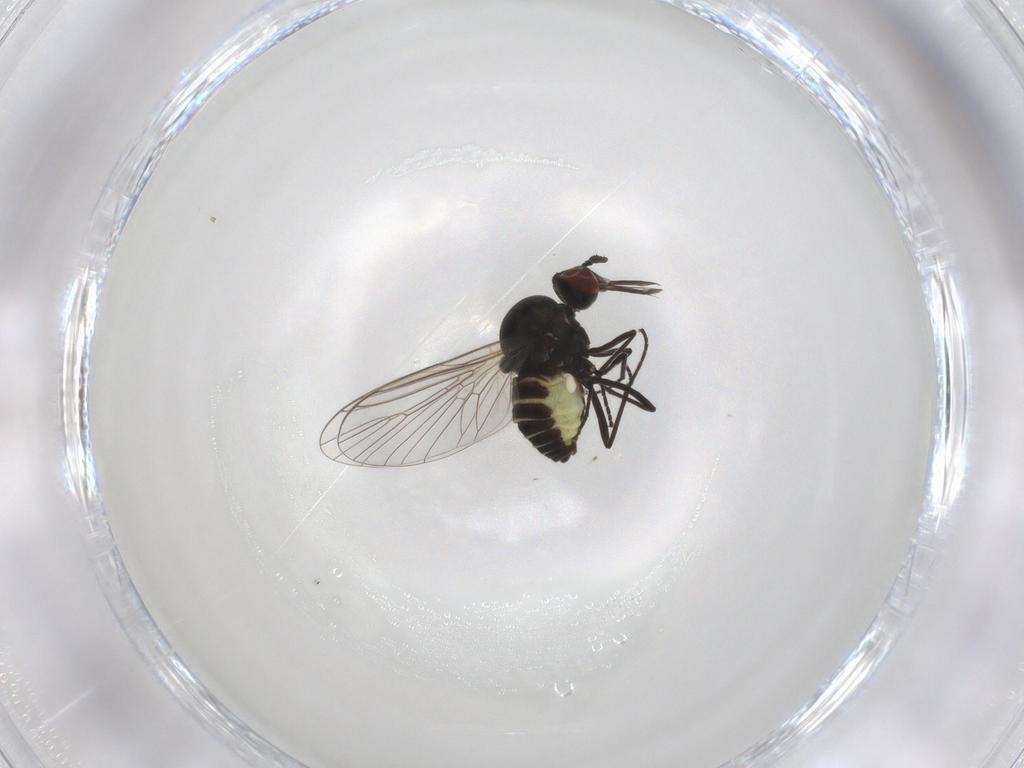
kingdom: Animalia
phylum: Arthropoda
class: Insecta
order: Diptera
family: Bombyliidae
